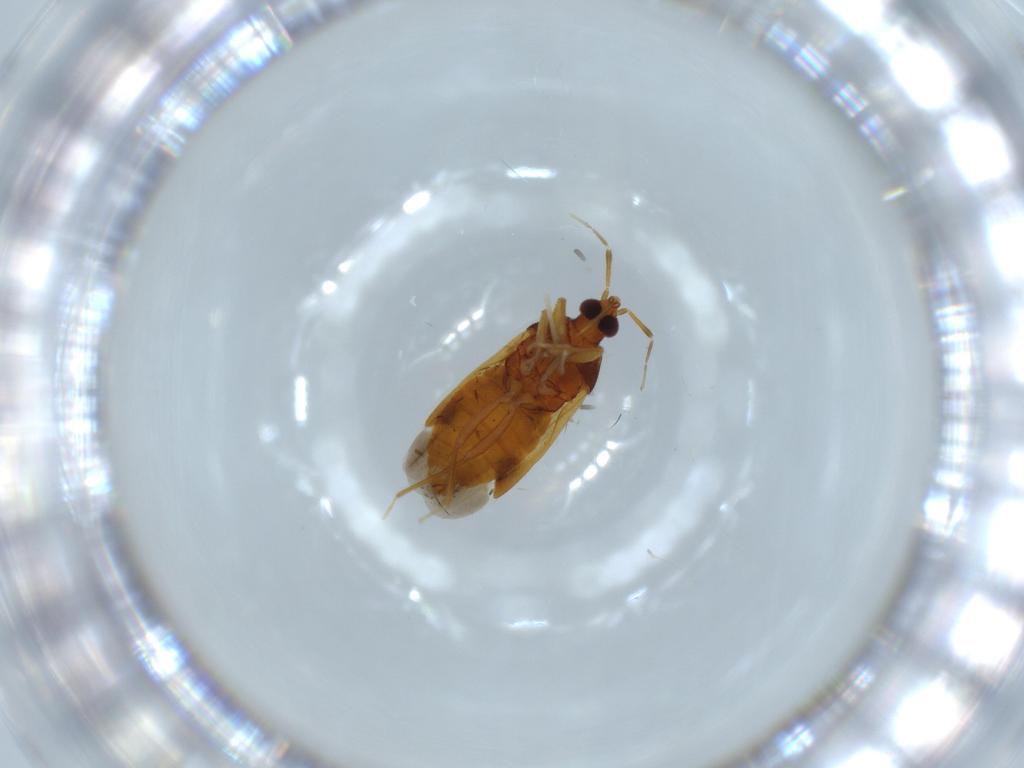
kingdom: Animalia
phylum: Arthropoda
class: Insecta
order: Hemiptera
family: Anthocoridae
